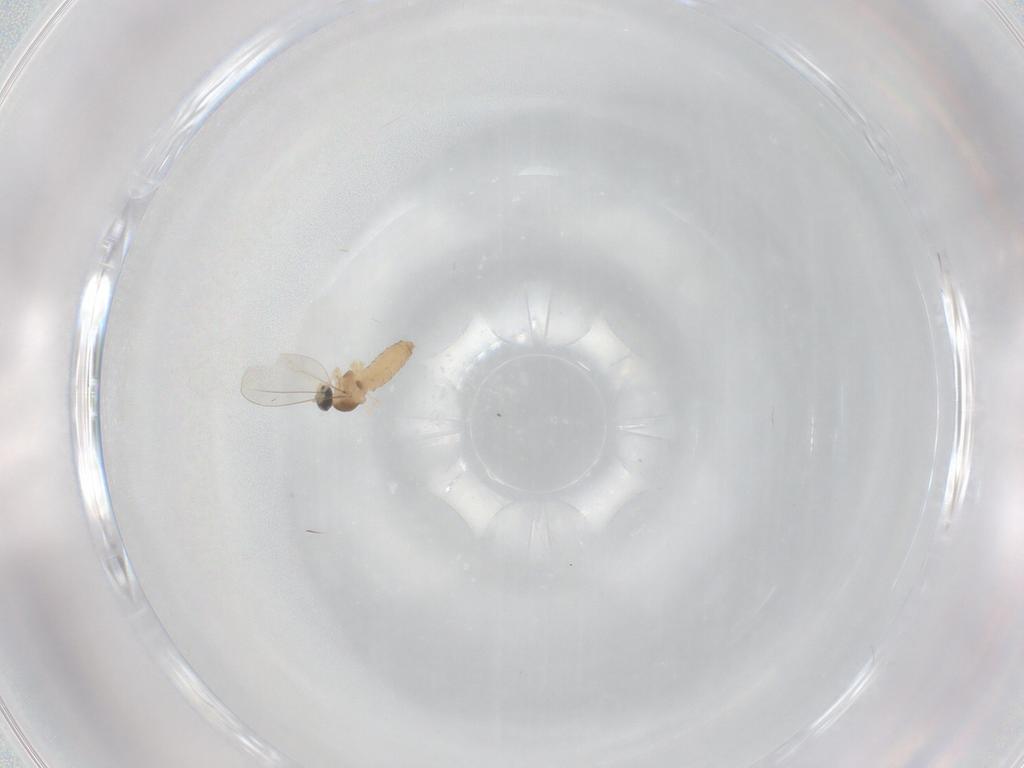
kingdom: Animalia
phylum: Arthropoda
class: Insecta
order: Diptera
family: Cecidomyiidae
